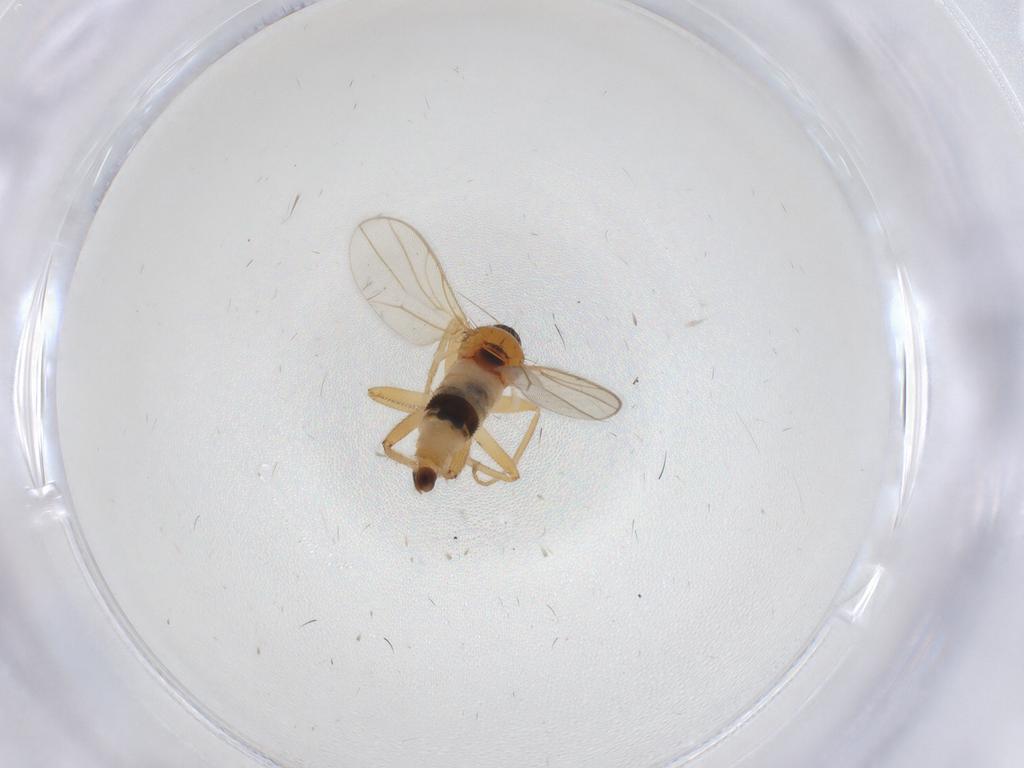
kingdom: Animalia
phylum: Arthropoda
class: Insecta
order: Diptera
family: Hybotidae
